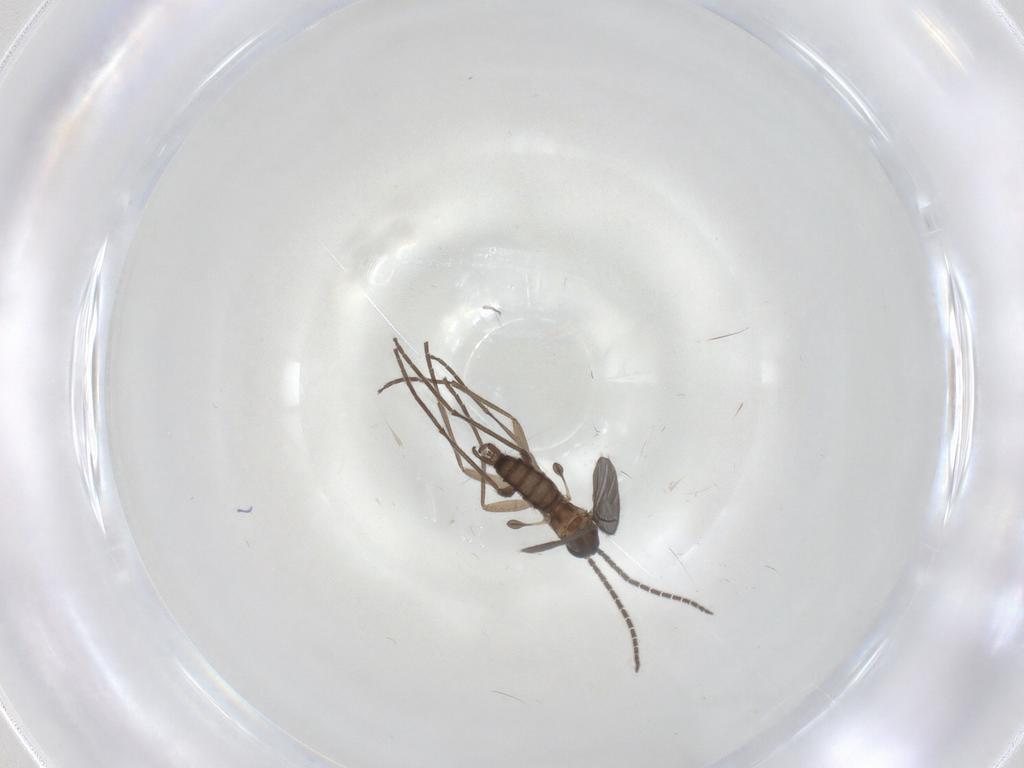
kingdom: Animalia
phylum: Arthropoda
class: Insecta
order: Diptera
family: Sciaridae
